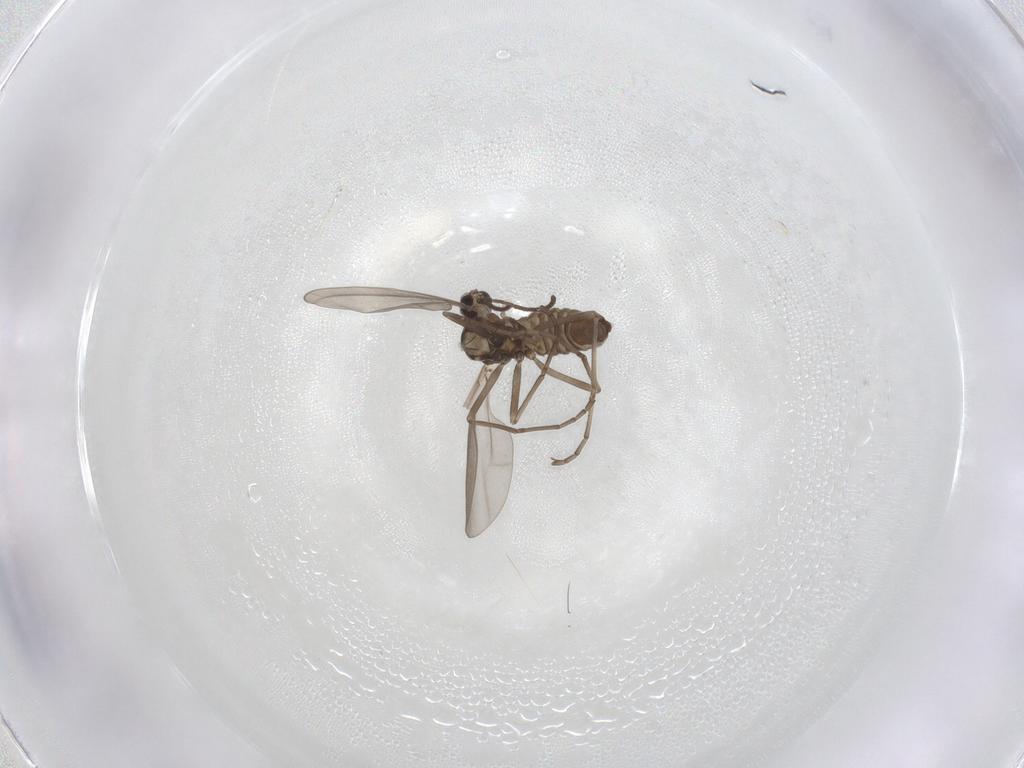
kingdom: Animalia
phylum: Arthropoda
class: Insecta
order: Diptera
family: Cecidomyiidae
